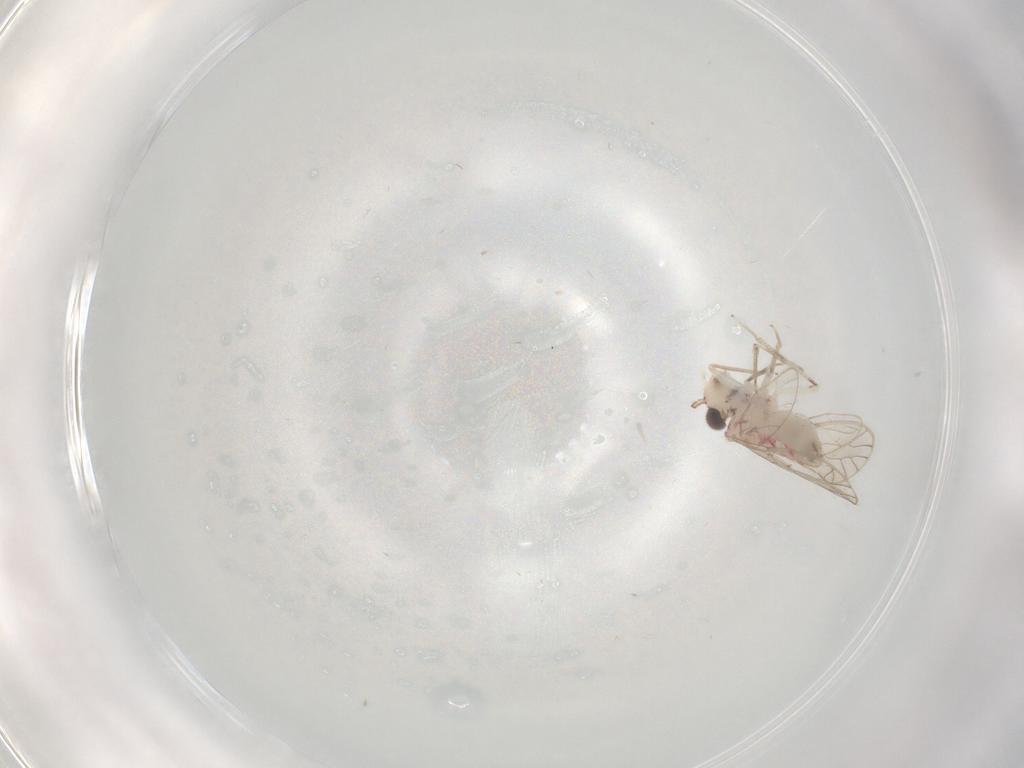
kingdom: Animalia
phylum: Arthropoda
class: Insecta
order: Psocodea
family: Caeciliusidae
